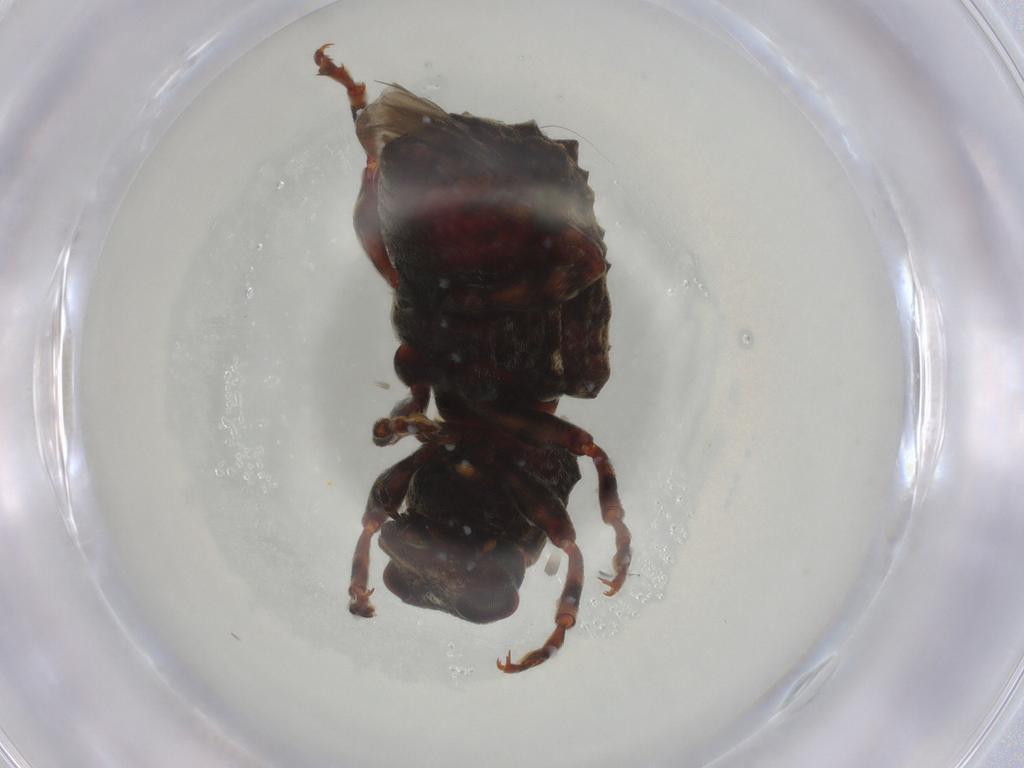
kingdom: Animalia
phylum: Arthropoda
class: Insecta
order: Coleoptera
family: Anthribidae
